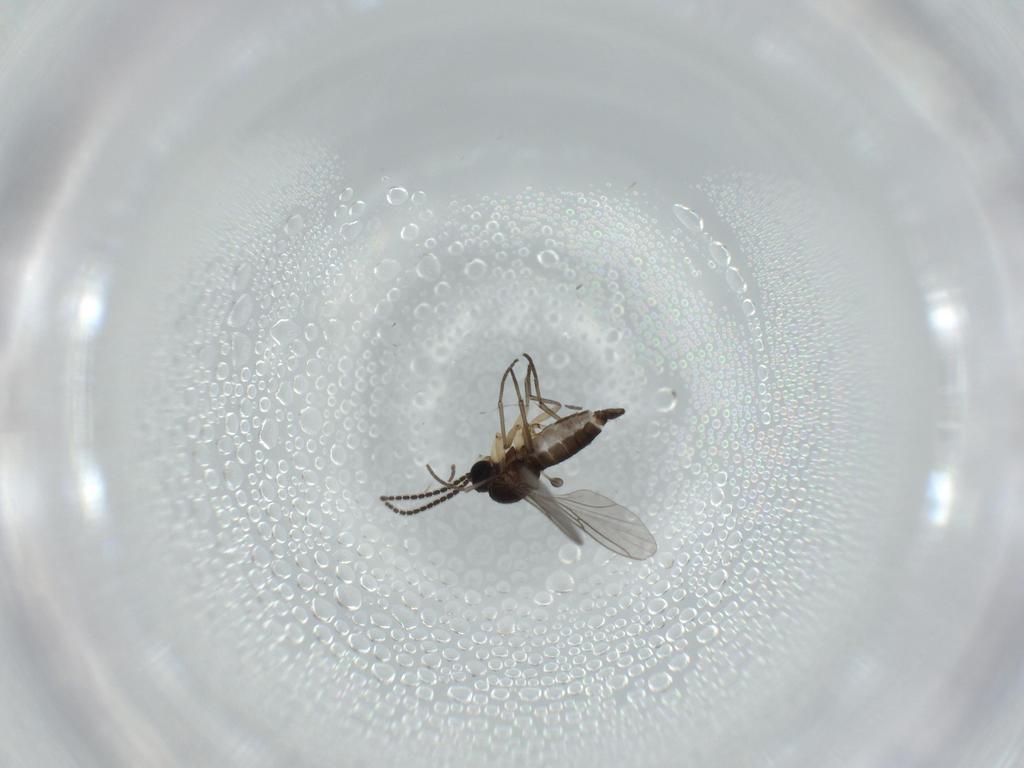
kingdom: Animalia
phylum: Arthropoda
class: Insecta
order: Diptera
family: Sciaridae
